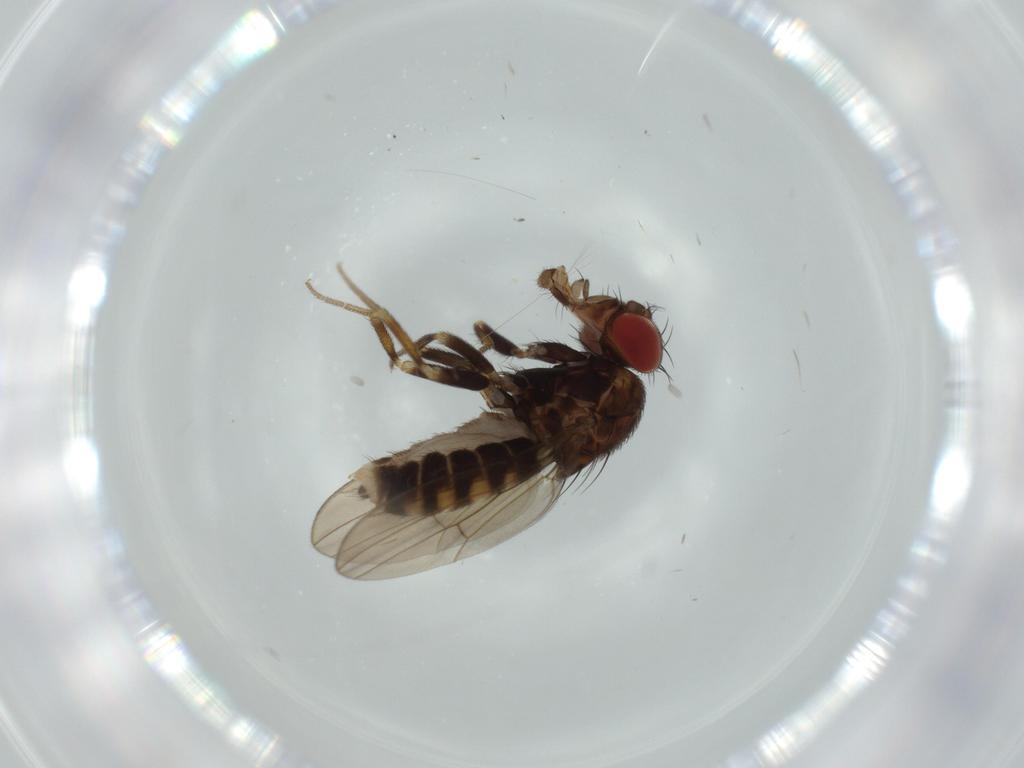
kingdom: Animalia
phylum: Arthropoda
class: Insecta
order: Diptera
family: Drosophilidae
